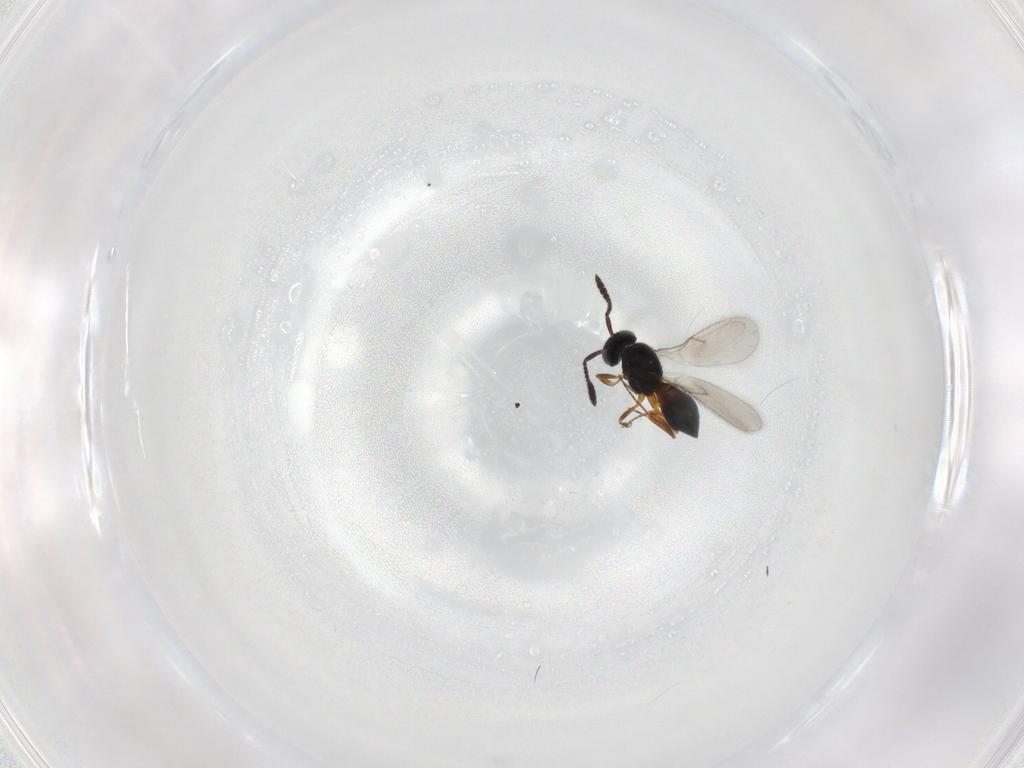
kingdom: Animalia
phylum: Arthropoda
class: Insecta
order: Hymenoptera
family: Scelionidae
